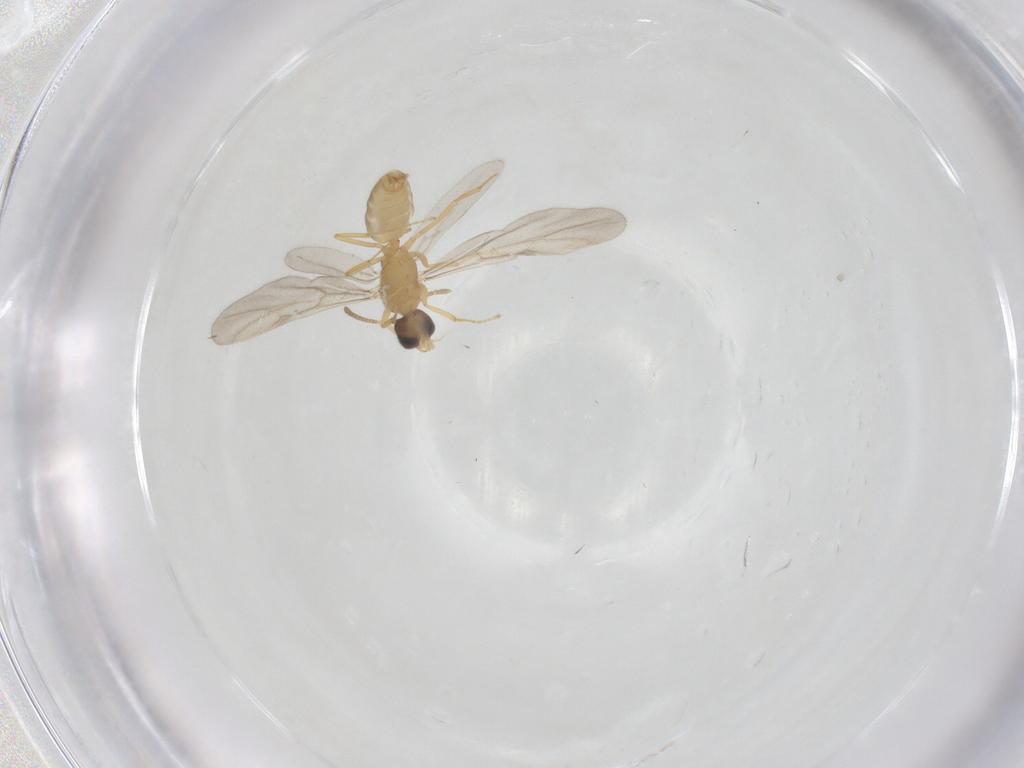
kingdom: Animalia
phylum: Arthropoda
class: Insecta
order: Hymenoptera
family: Formicidae
